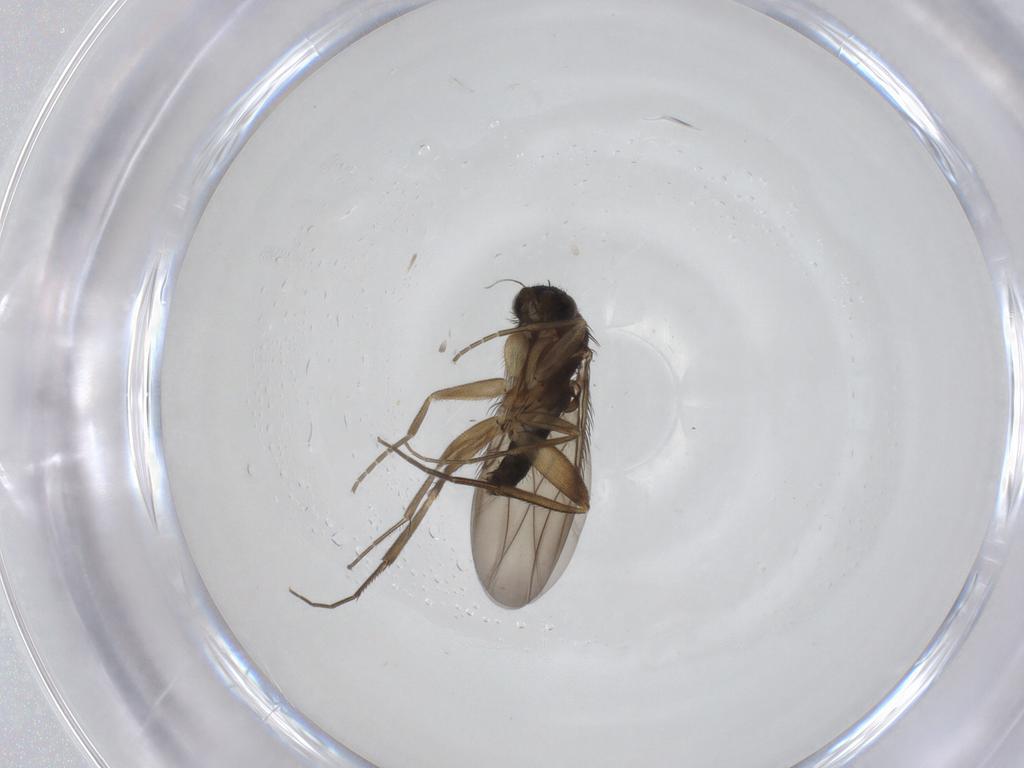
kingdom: Animalia
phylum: Arthropoda
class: Insecta
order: Diptera
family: Phoridae
